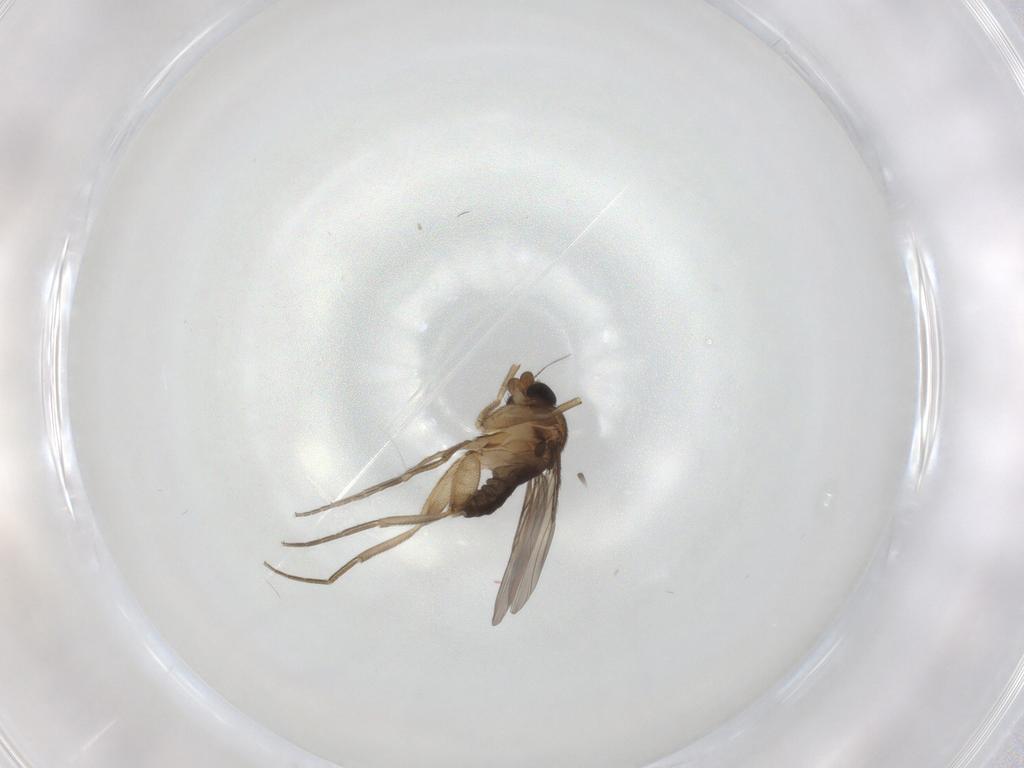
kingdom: Animalia
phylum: Arthropoda
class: Insecta
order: Diptera
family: Phoridae
